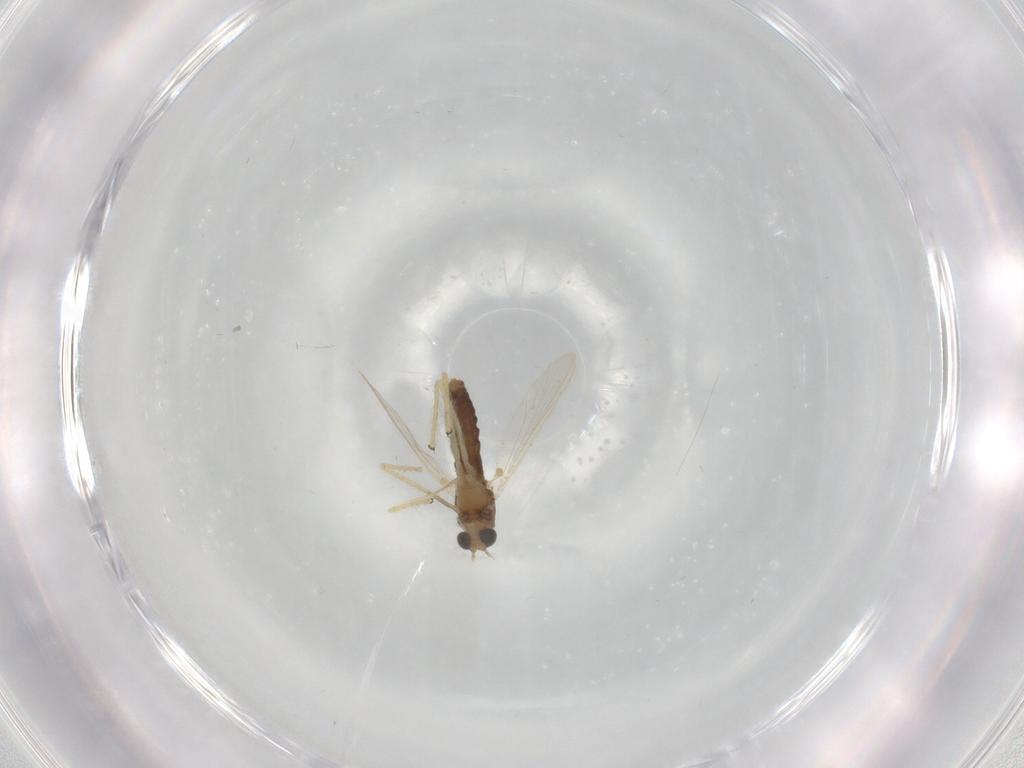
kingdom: Animalia
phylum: Arthropoda
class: Insecta
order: Diptera
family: Chironomidae
